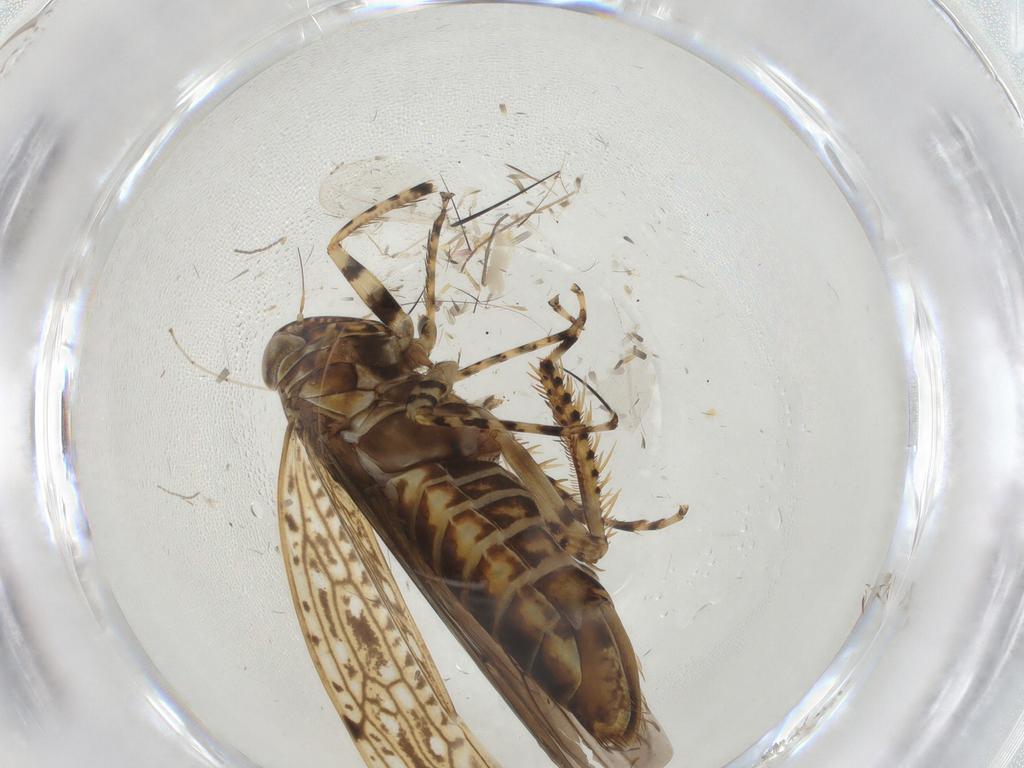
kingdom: Animalia
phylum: Arthropoda
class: Insecta
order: Hemiptera
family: Cicadellidae
